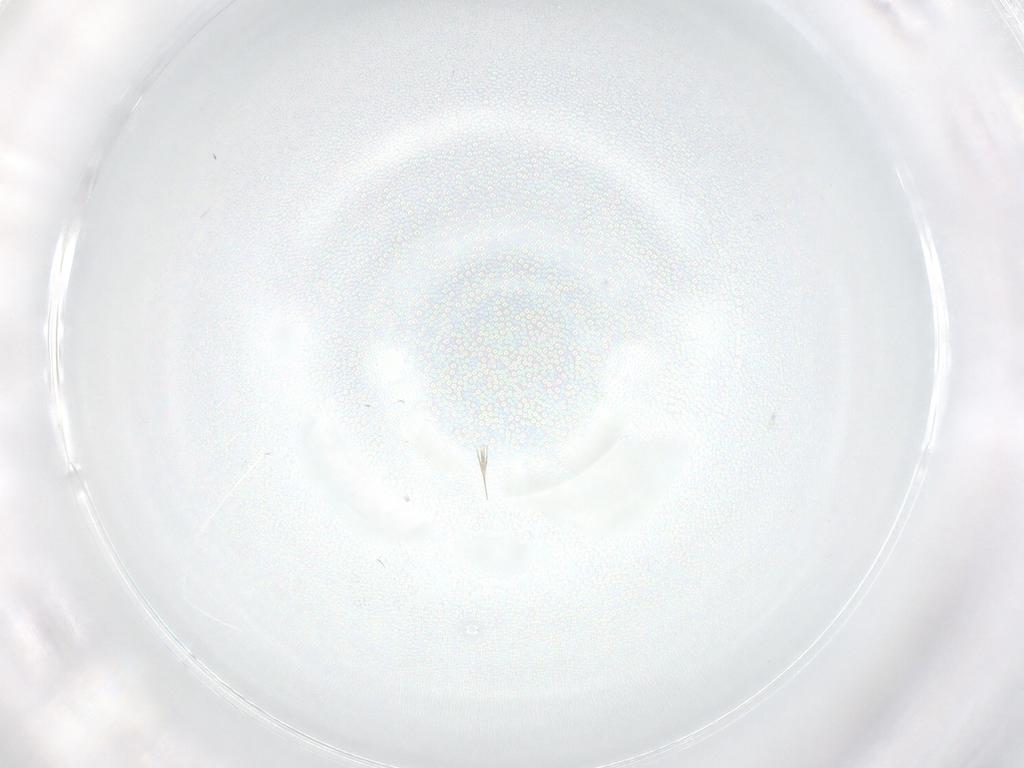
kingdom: Animalia
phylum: Arthropoda
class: Insecta
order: Diptera
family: Cecidomyiidae
